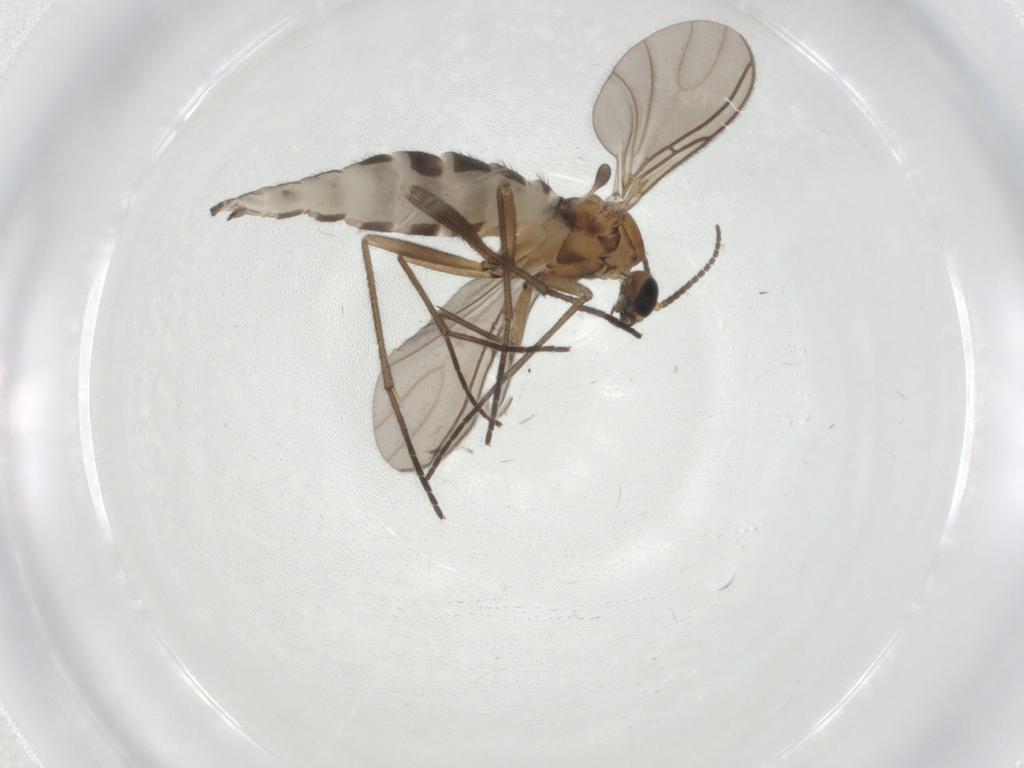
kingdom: Animalia
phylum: Arthropoda
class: Insecta
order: Diptera
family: Sciaridae
